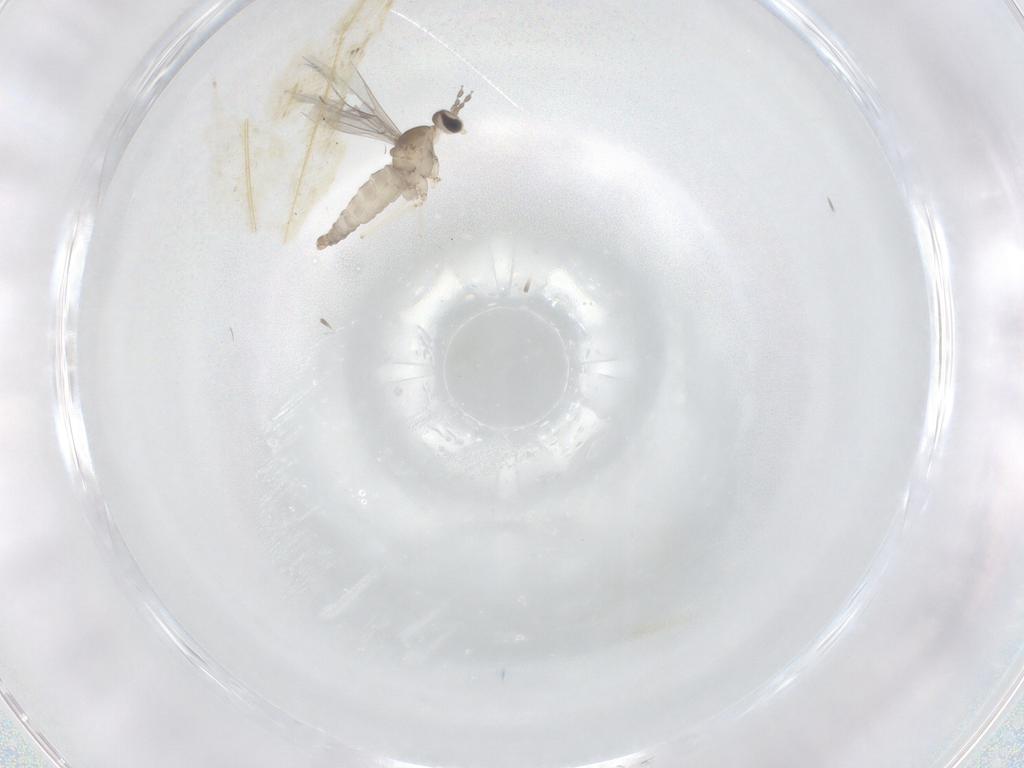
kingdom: Animalia
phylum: Arthropoda
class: Insecta
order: Diptera
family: Cecidomyiidae
